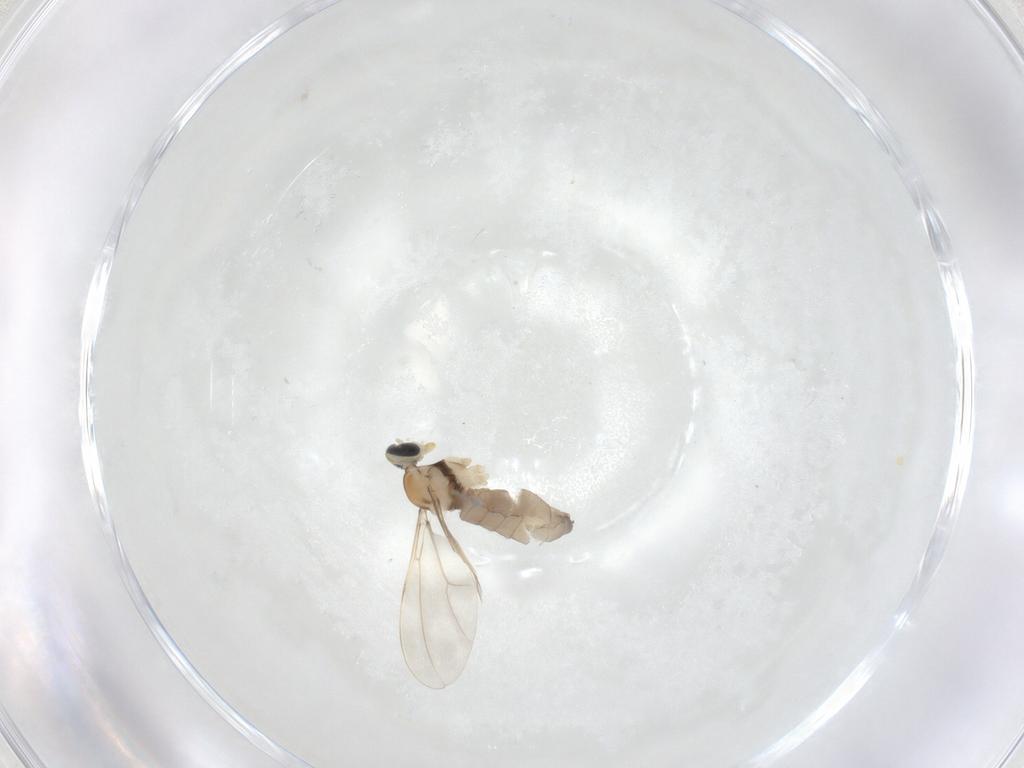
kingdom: Animalia
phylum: Arthropoda
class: Insecta
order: Diptera
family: Cecidomyiidae
